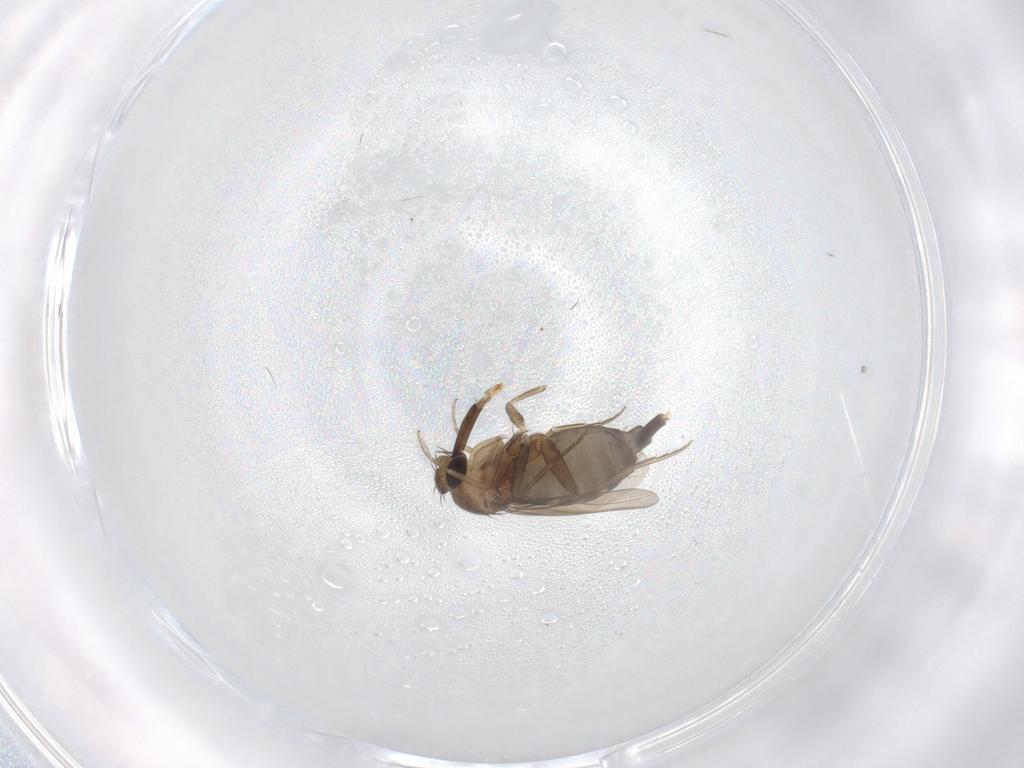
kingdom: Animalia
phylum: Arthropoda
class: Insecta
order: Diptera
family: Phoridae
